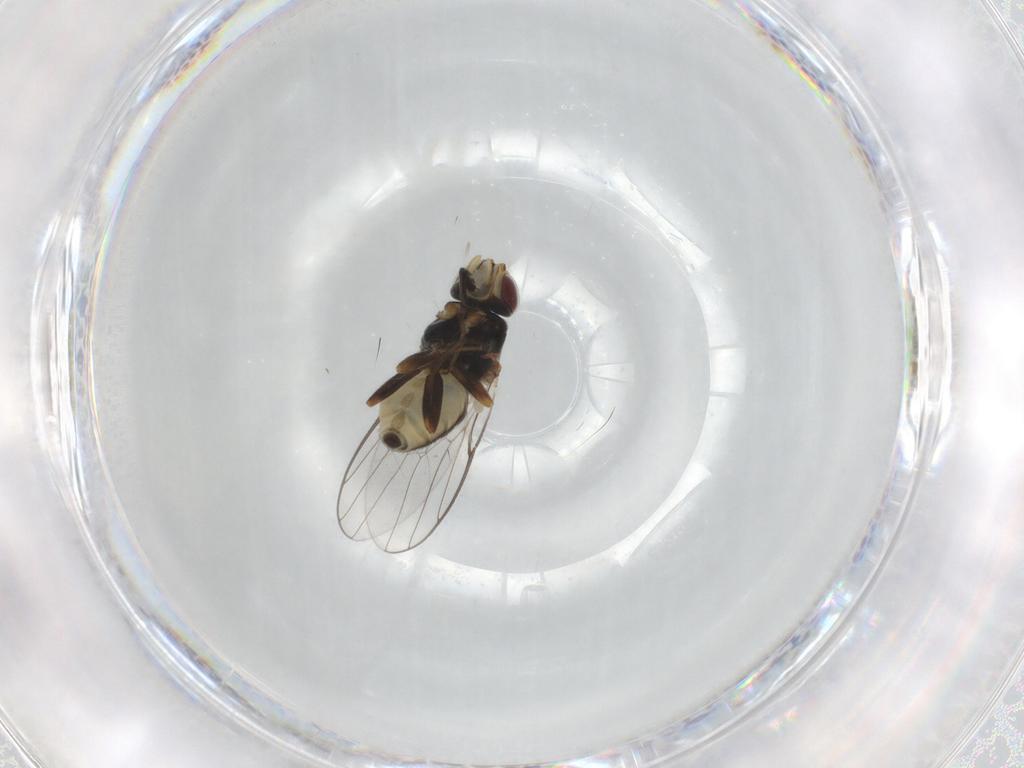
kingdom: Animalia
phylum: Arthropoda
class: Insecta
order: Diptera
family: Chloropidae
